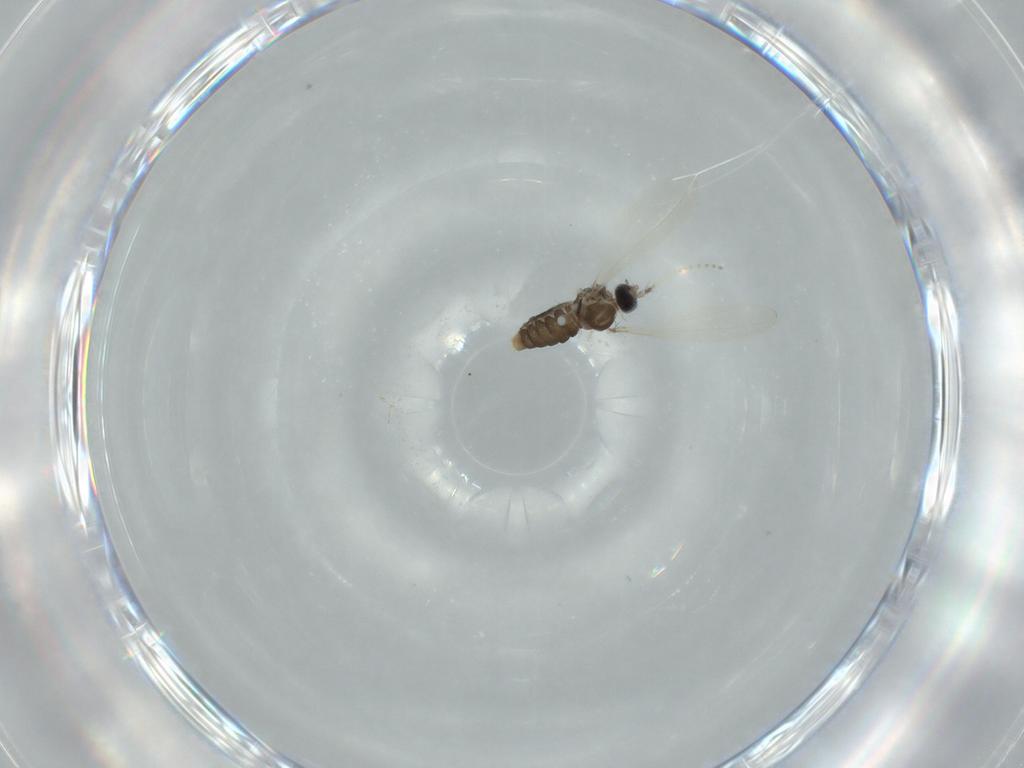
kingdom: Animalia
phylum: Arthropoda
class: Insecta
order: Diptera
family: Cecidomyiidae
